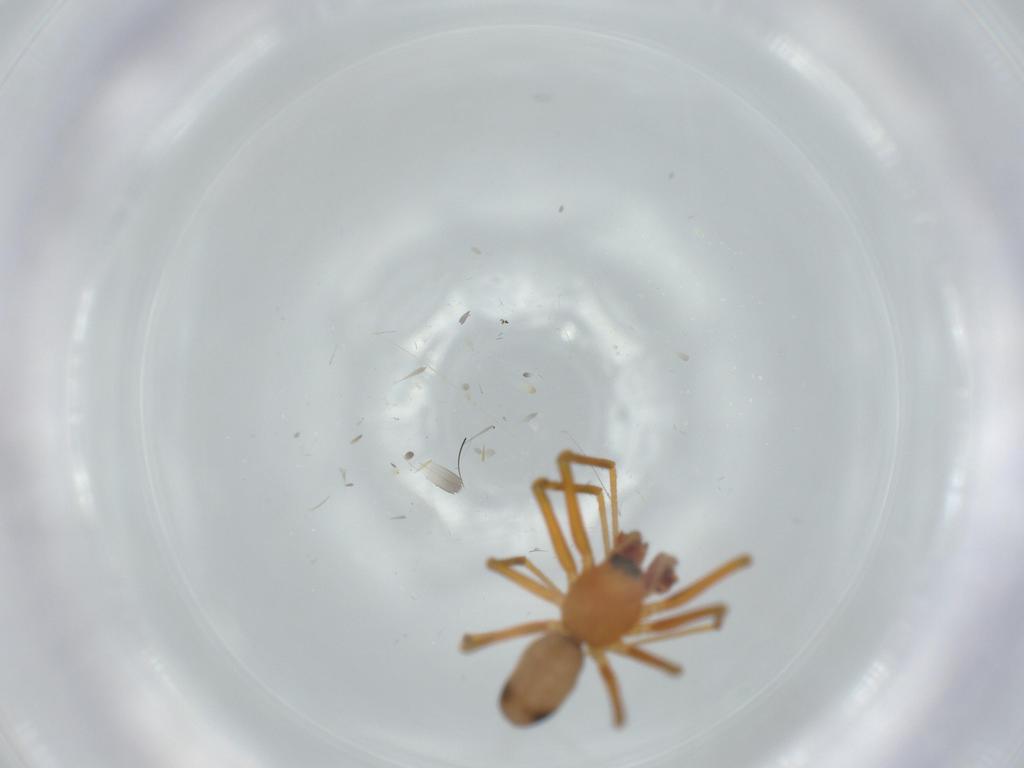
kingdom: Animalia
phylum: Arthropoda
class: Arachnida
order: Araneae
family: Linyphiidae
